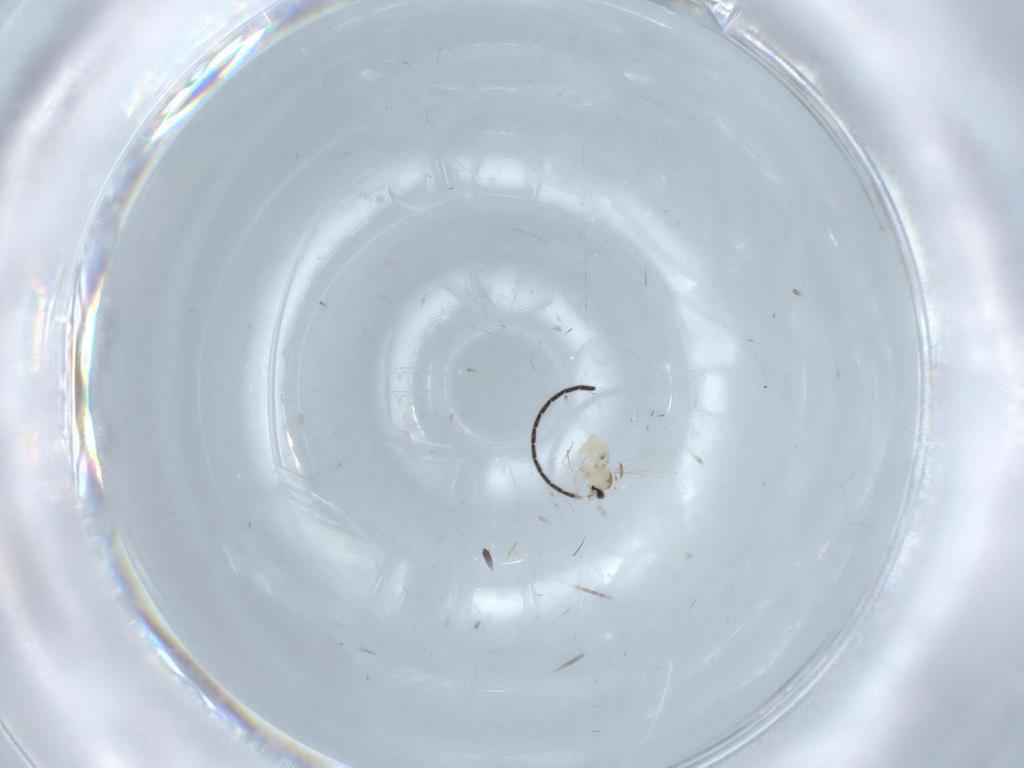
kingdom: Animalia
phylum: Arthropoda
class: Insecta
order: Diptera
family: Cecidomyiidae
